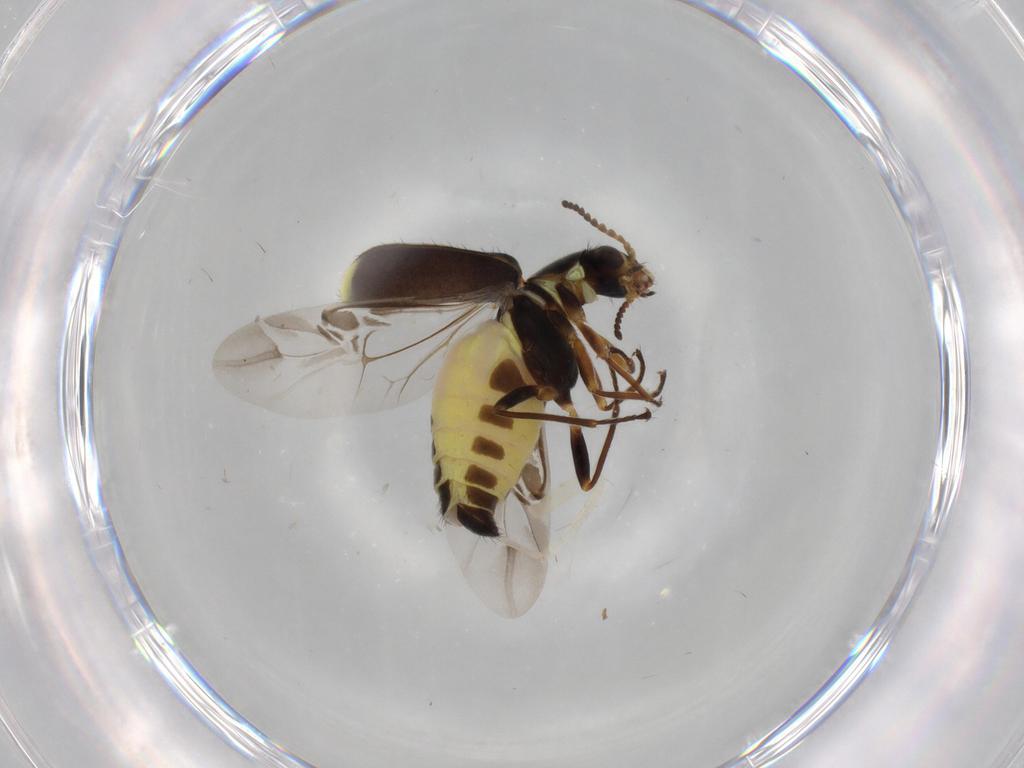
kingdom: Animalia
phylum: Arthropoda
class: Insecta
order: Coleoptera
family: Melyridae
